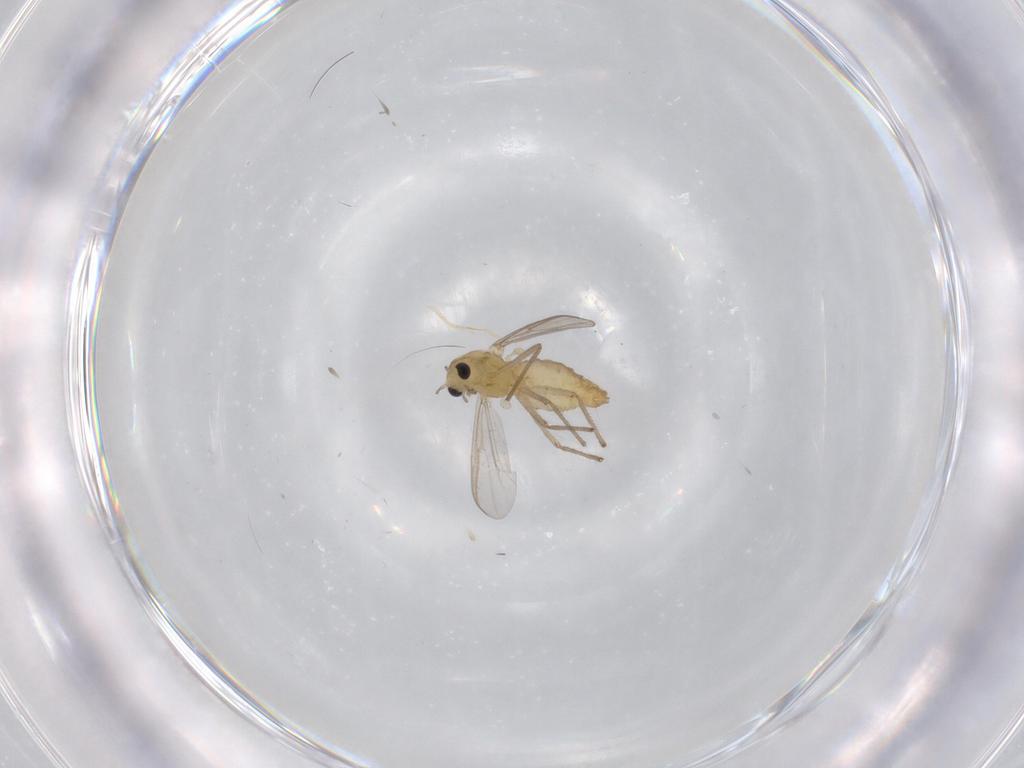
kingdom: Animalia
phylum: Arthropoda
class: Insecta
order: Diptera
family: Chironomidae
